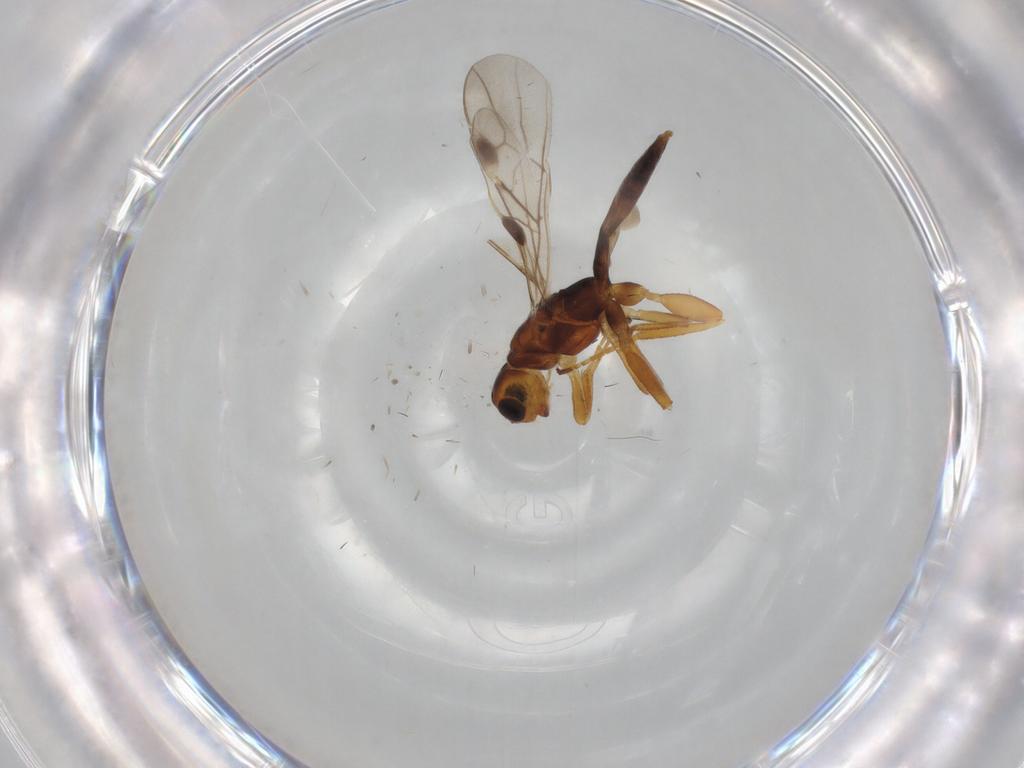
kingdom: Animalia
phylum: Arthropoda
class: Insecta
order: Hymenoptera
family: Braconidae
